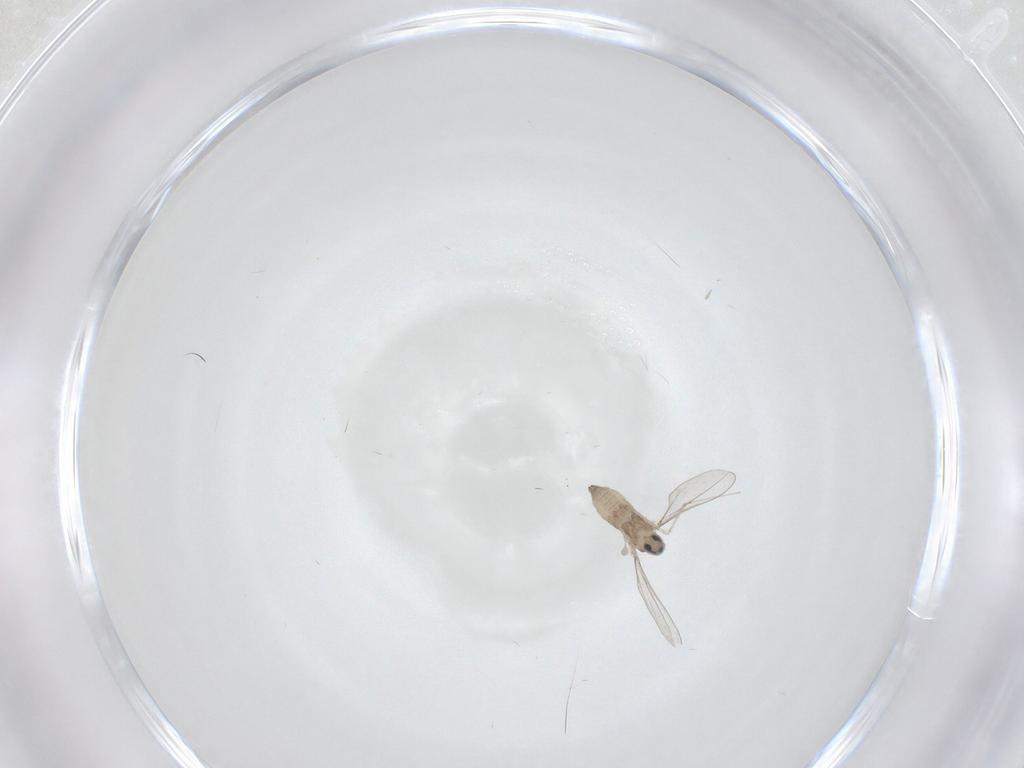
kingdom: Animalia
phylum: Arthropoda
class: Insecta
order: Diptera
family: Cecidomyiidae
